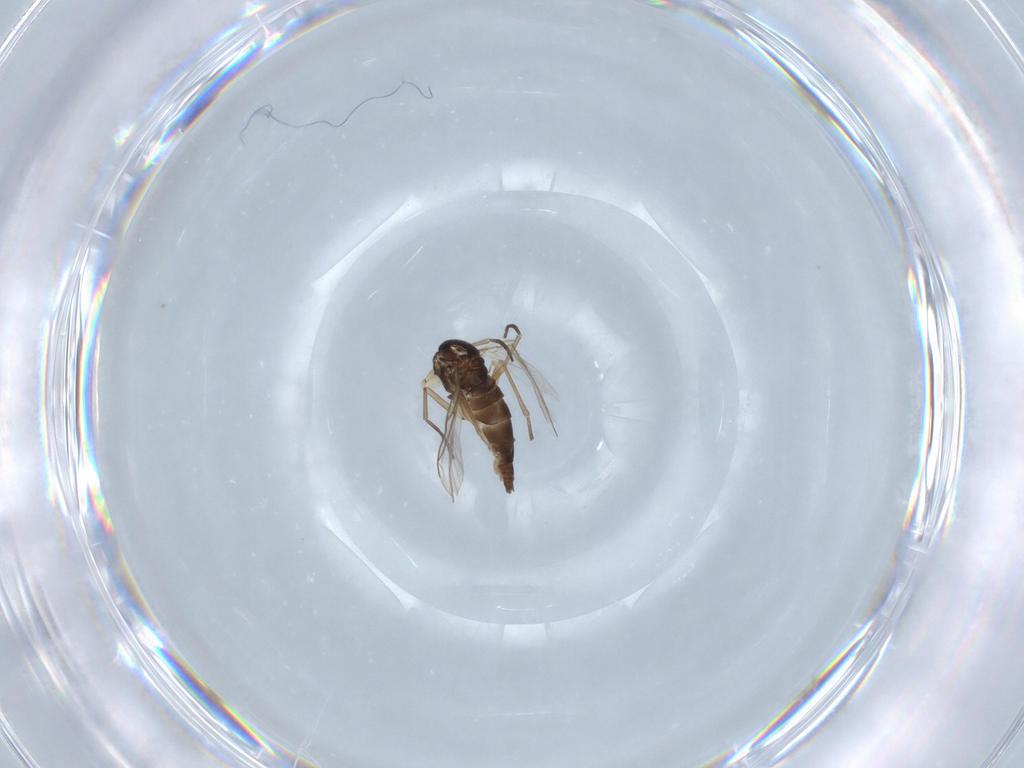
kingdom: Animalia
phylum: Arthropoda
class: Insecta
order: Diptera
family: Sciaridae
